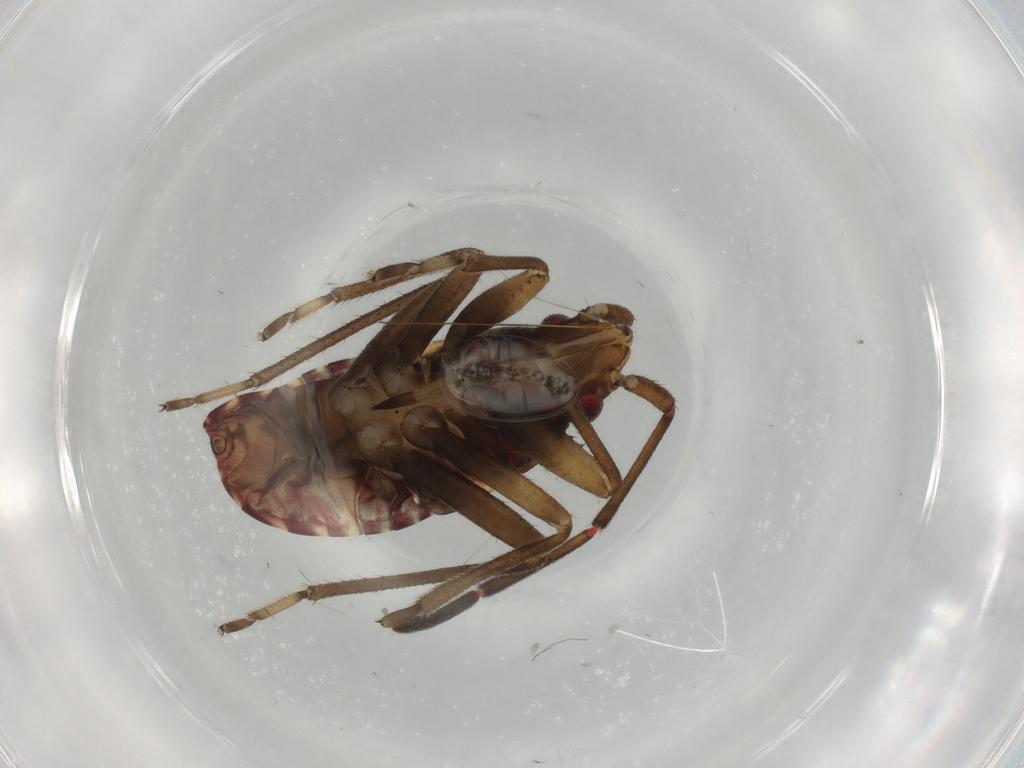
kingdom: Animalia
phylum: Arthropoda
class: Insecta
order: Hemiptera
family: Rhyparochromidae
